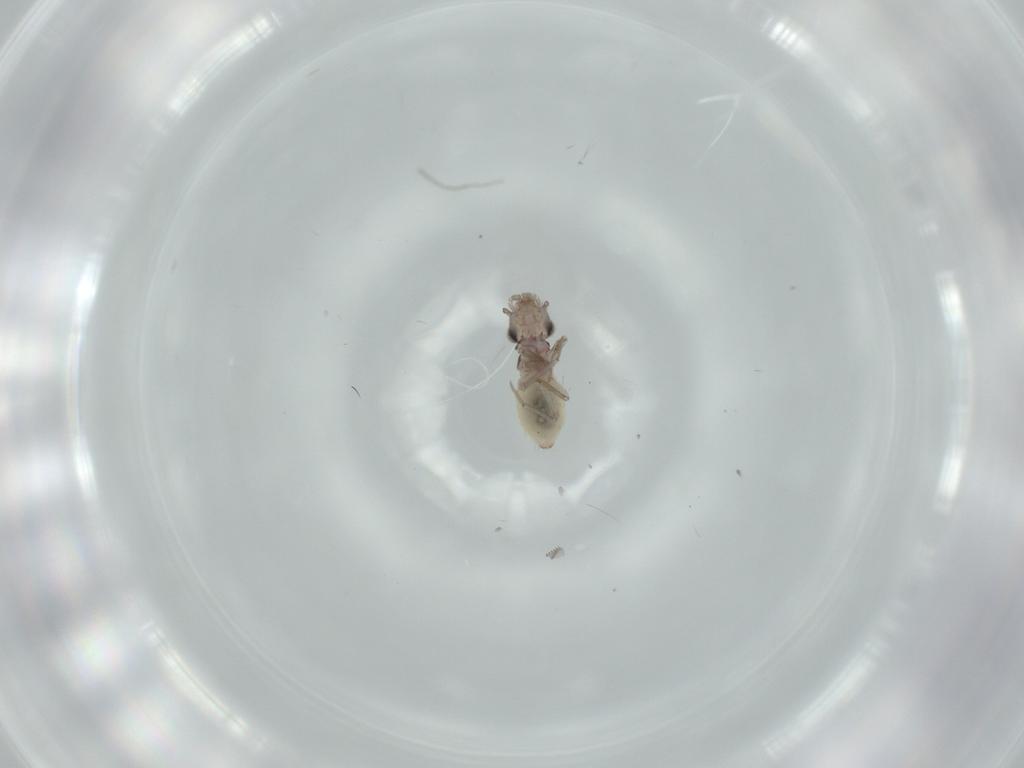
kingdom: Animalia
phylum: Arthropoda
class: Insecta
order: Psocodea
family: Lepidopsocidae
